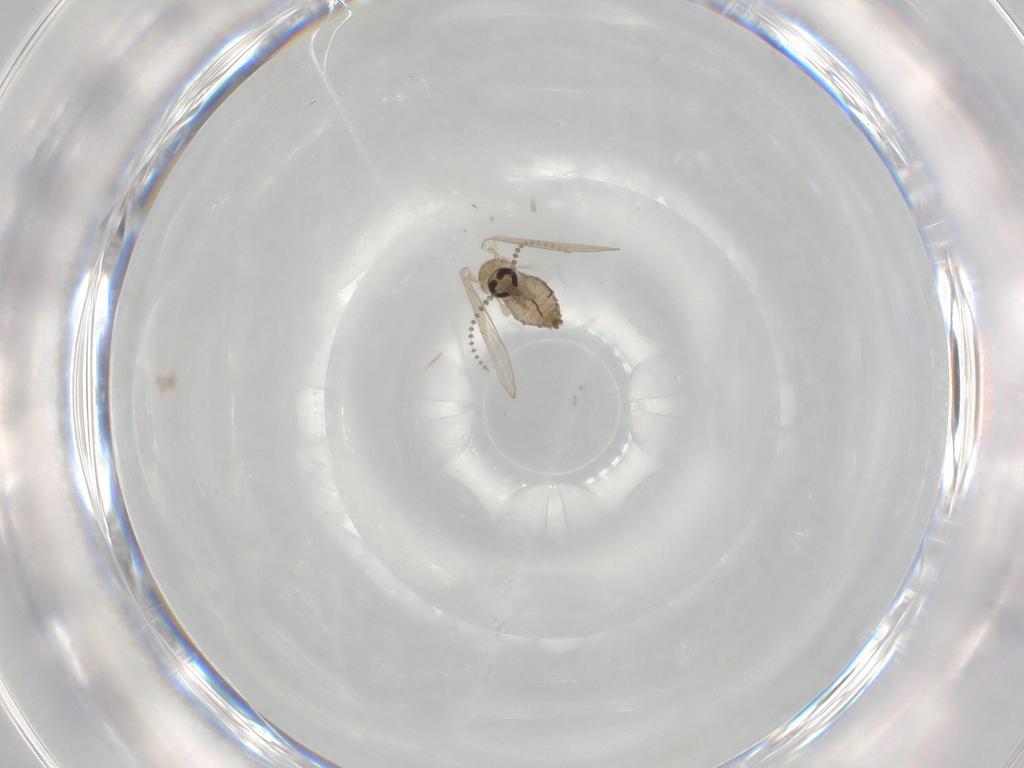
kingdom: Animalia
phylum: Arthropoda
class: Insecta
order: Diptera
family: Psychodidae
